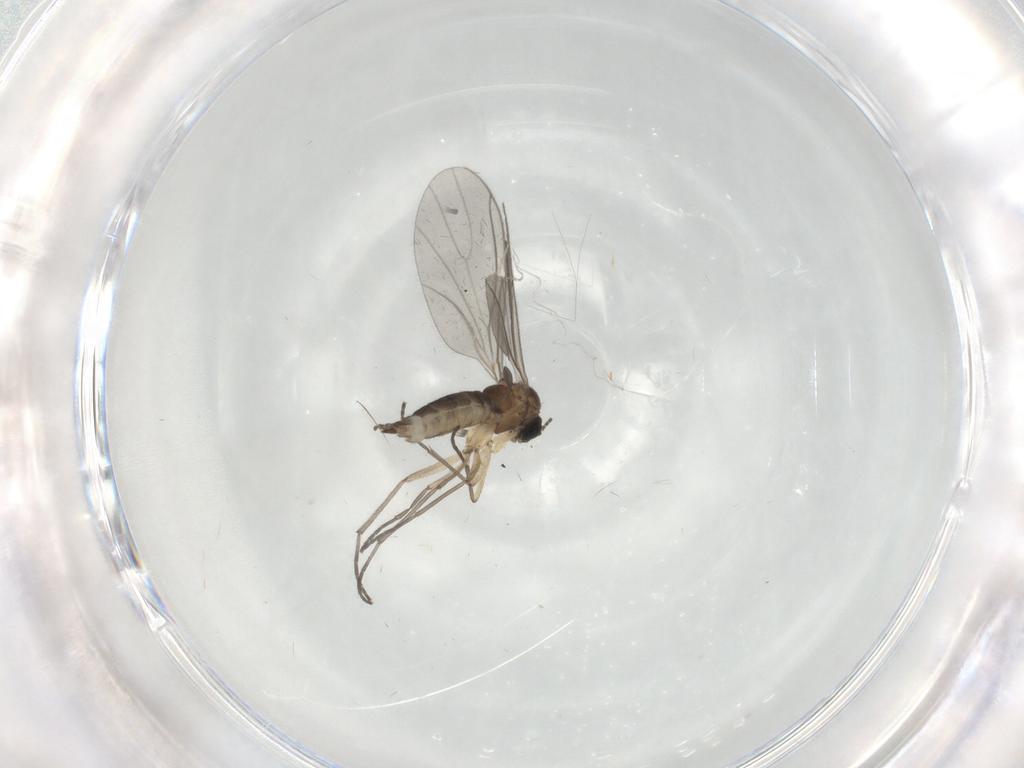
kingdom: Animalia
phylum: Arthropoda
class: Insecta
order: Diptera
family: Sciaridae
